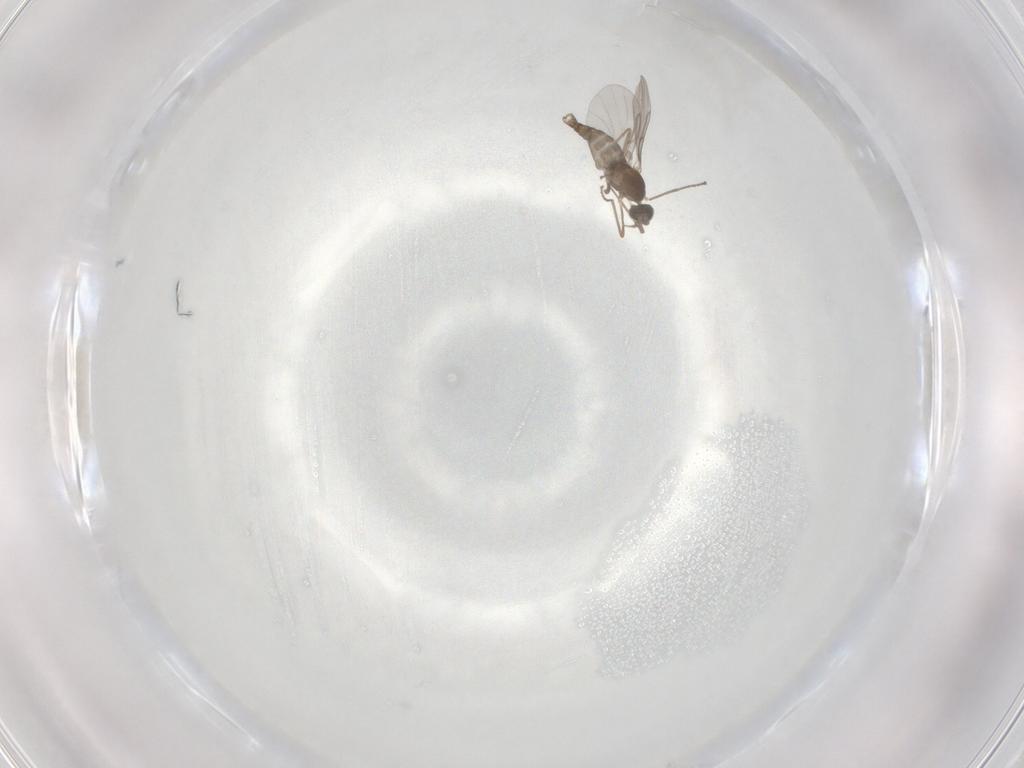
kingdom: Animalia
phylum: Arthropoda
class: Insecta
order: Diptera
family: Cecidomyiidae
